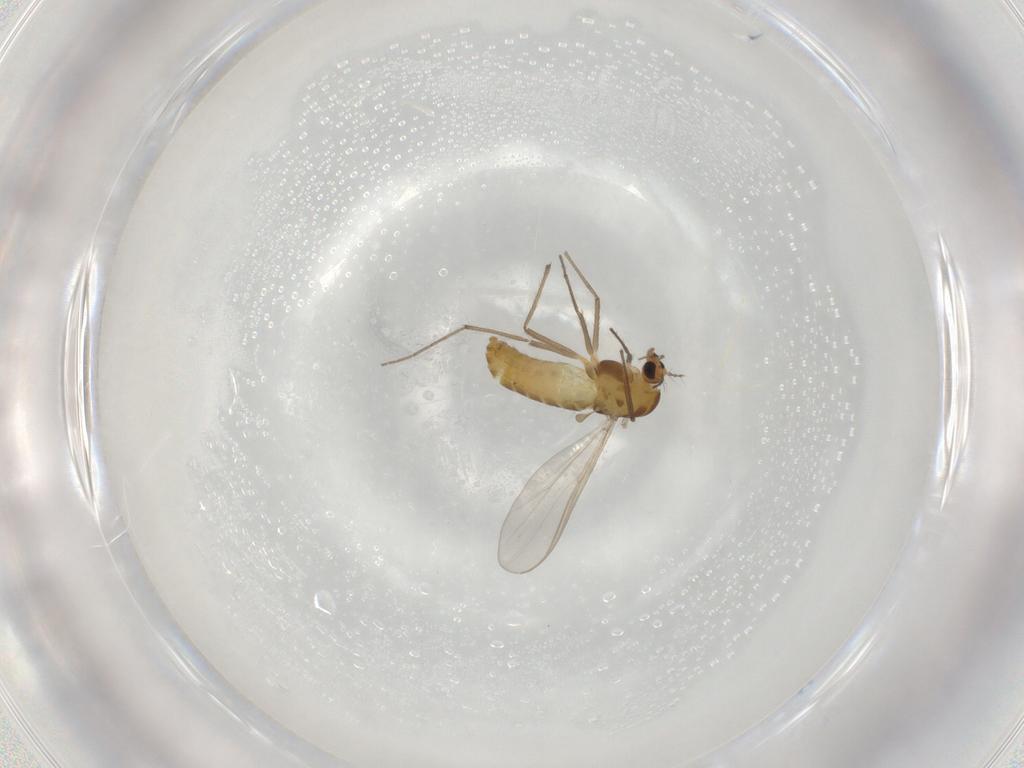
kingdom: Animalia
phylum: Arthropoda
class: Insecta
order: Diptera
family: Chironomidae
